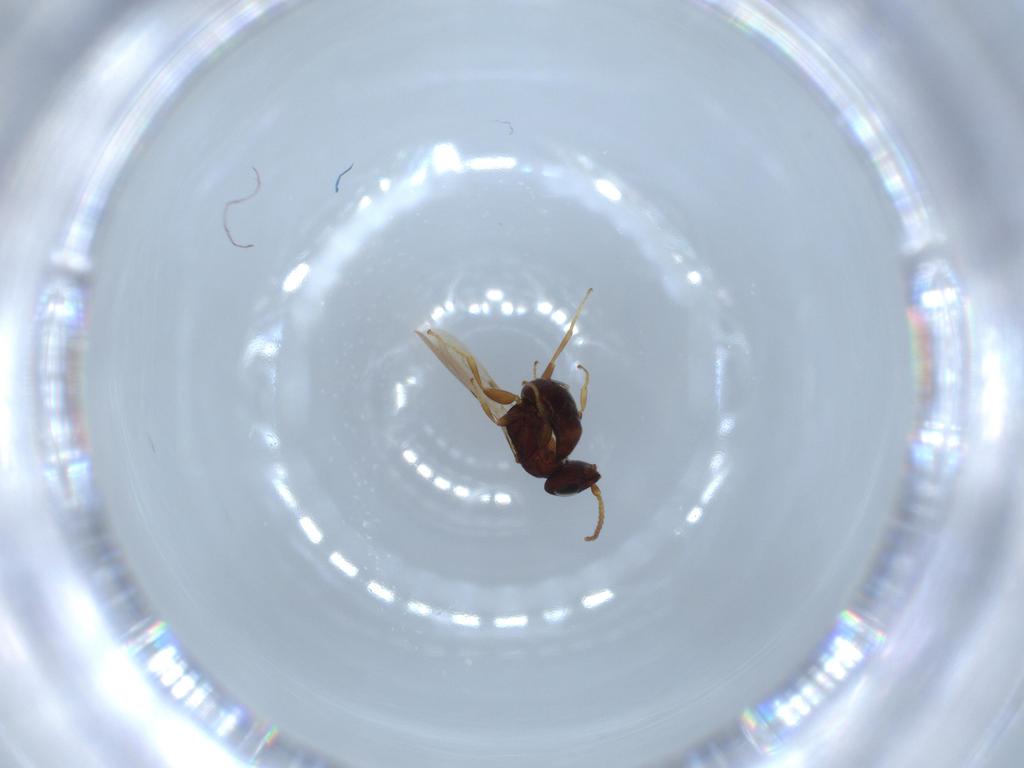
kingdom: Animalia
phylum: Arthropoda
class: Insecta
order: Hymenoptera
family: Bethylidae
